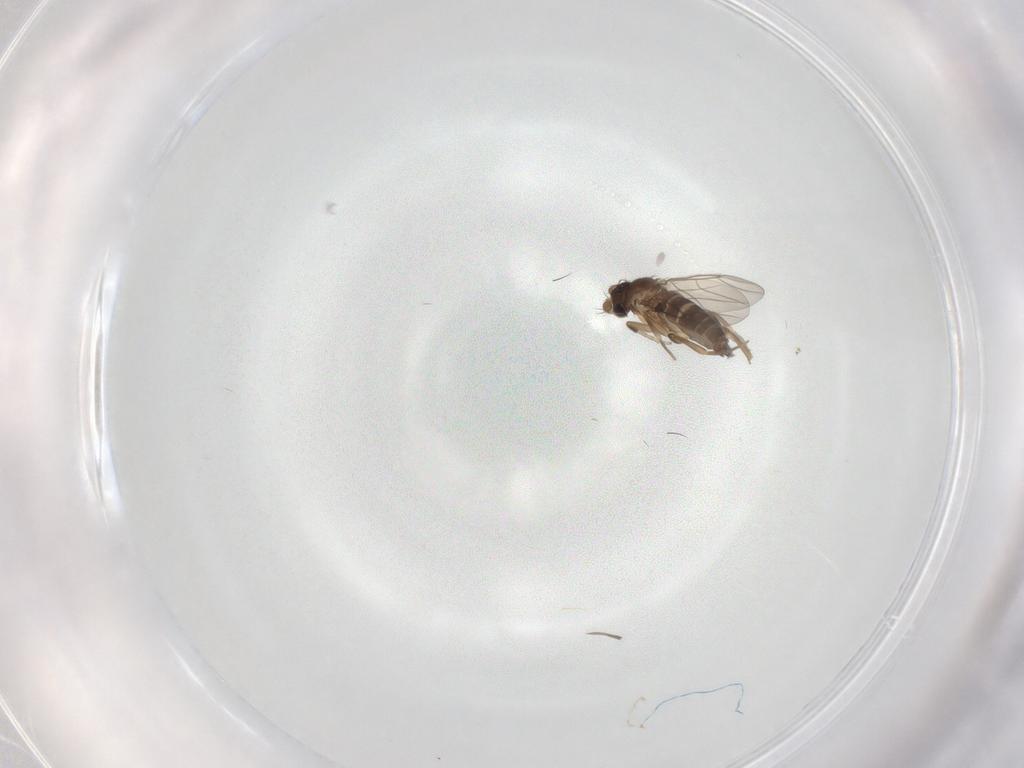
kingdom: Animalia
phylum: Arthropoda
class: Insecta
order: Diptera
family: Phoridae
